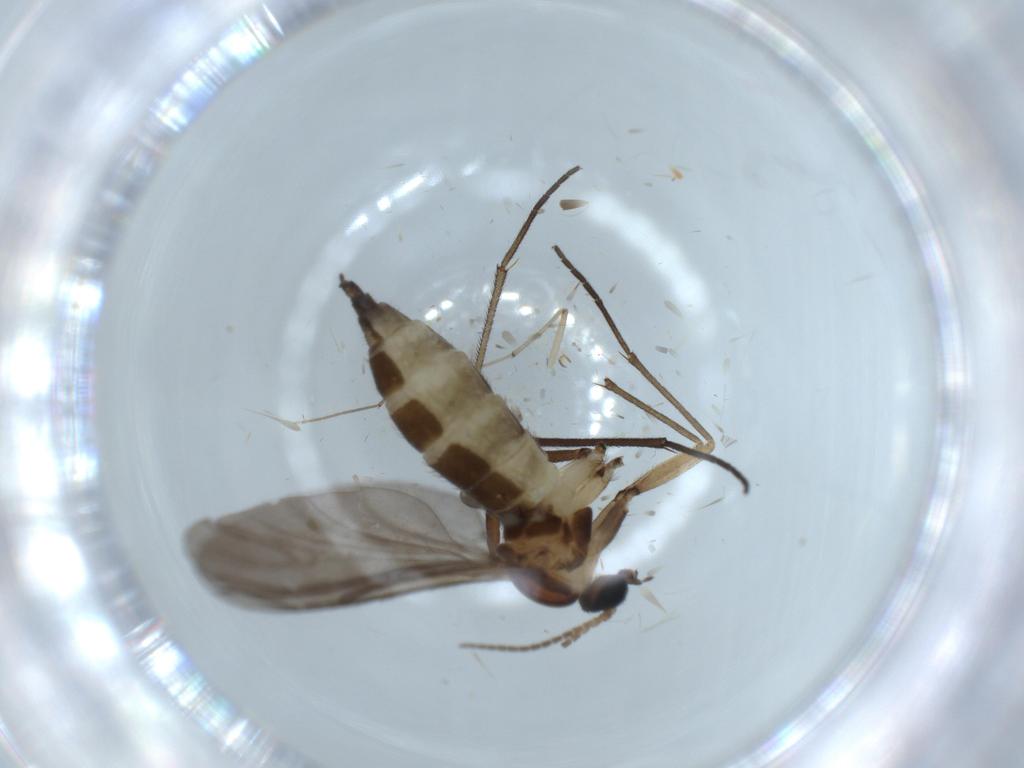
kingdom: Animalia
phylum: Arthropoda
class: Insecta
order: Diptera
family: Sciaridae
